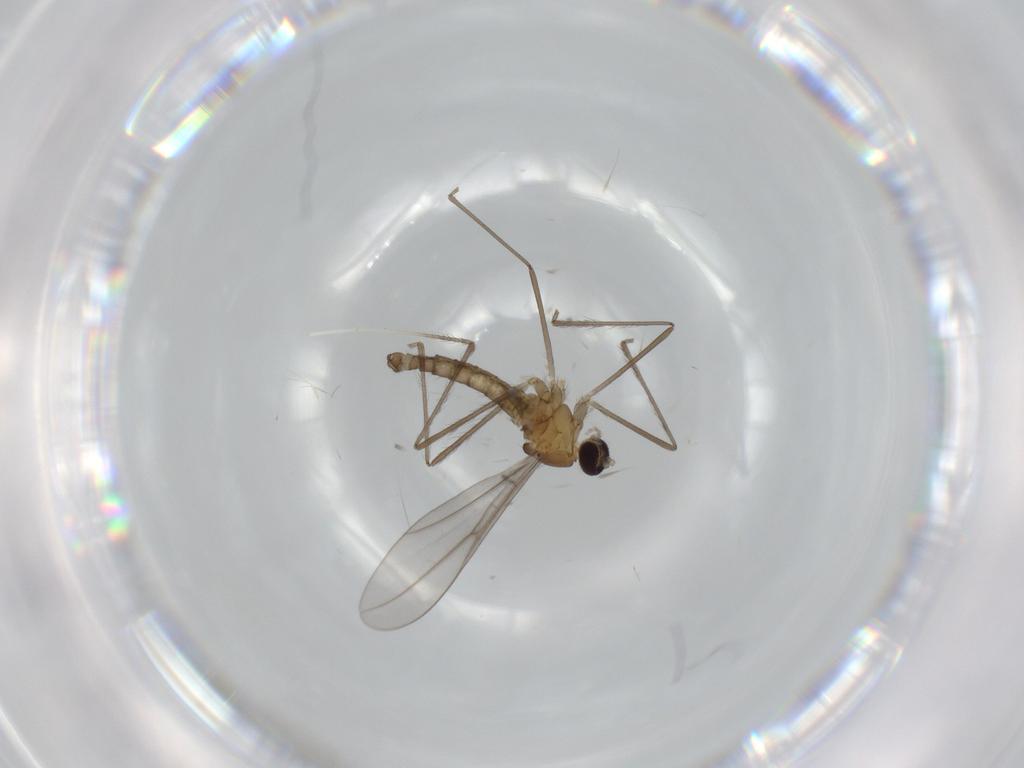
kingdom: Animalia
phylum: Arthropoda
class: Insecta
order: Diptera
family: Cecidomyiidae
